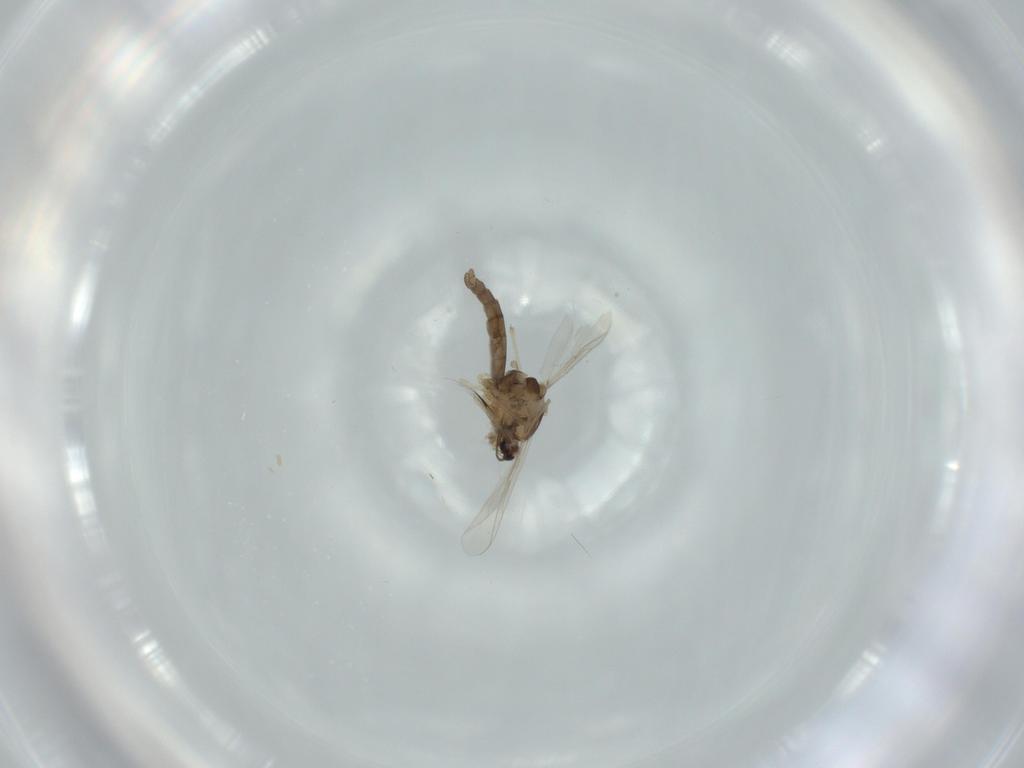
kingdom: Animalia
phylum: Arthropoda
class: Insecta
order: Diptera
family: Chironomidae
